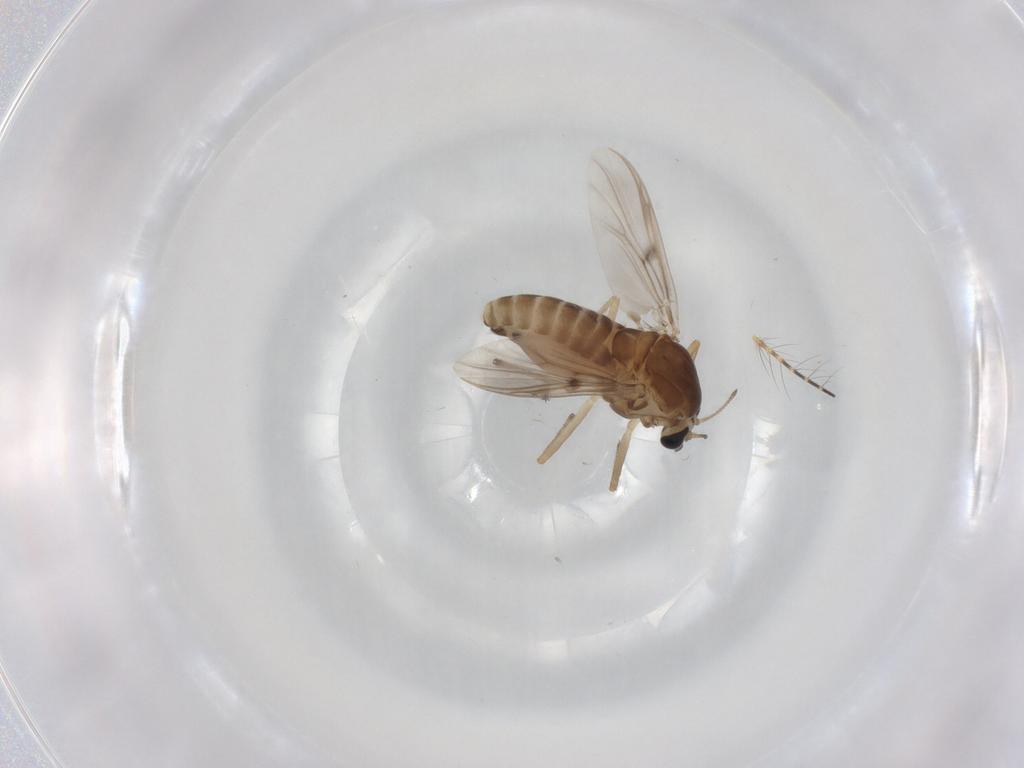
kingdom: Animalia
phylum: Arthropoda
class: Insecta
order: Diptera
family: Chironomidae
